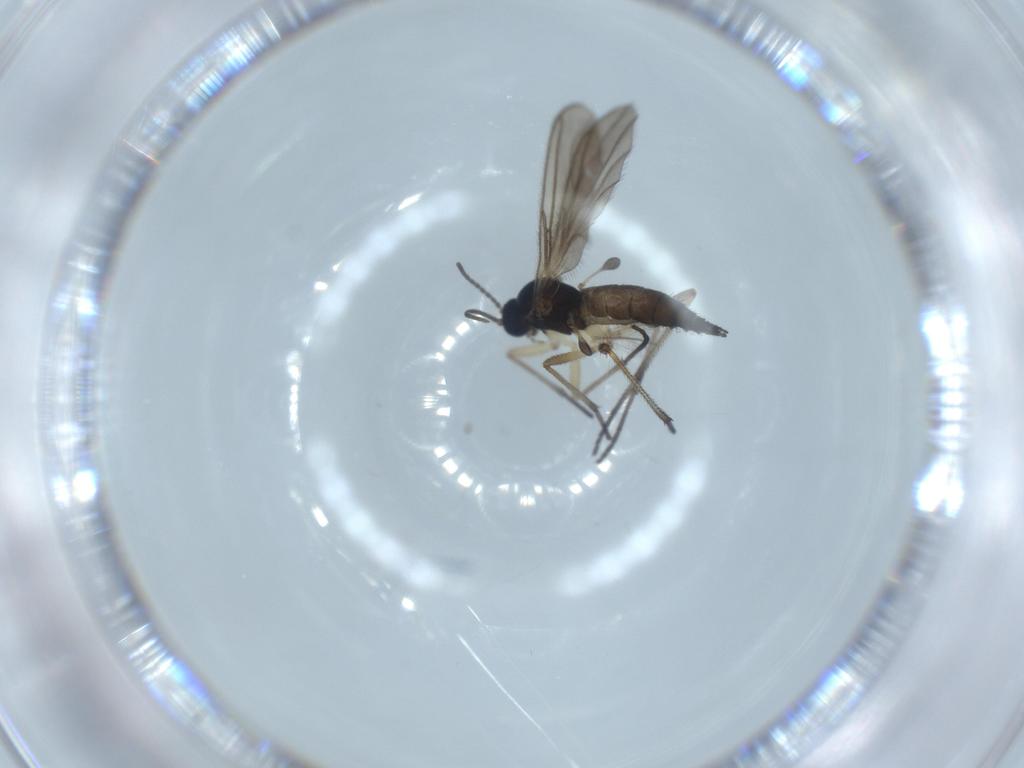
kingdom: Animalia
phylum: Arthropoda
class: Insecta
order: Diptera
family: Sciaridae
